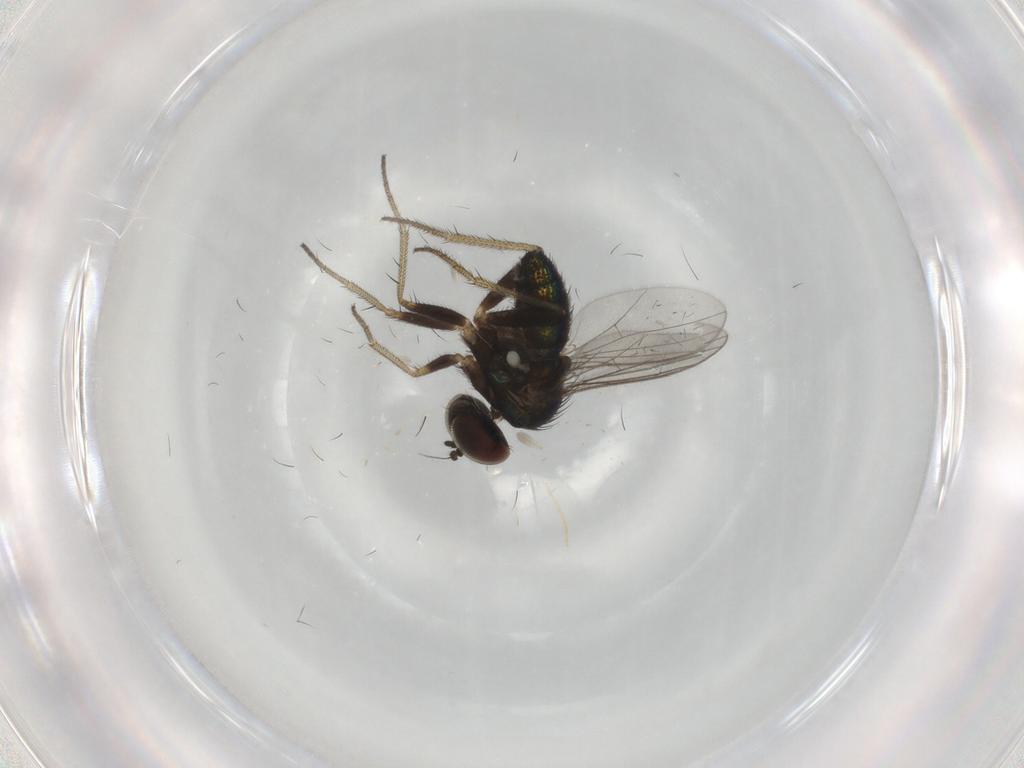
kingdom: Animalia
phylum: Arthropoda
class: Insecta
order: Diptera
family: Dolichopodidae
